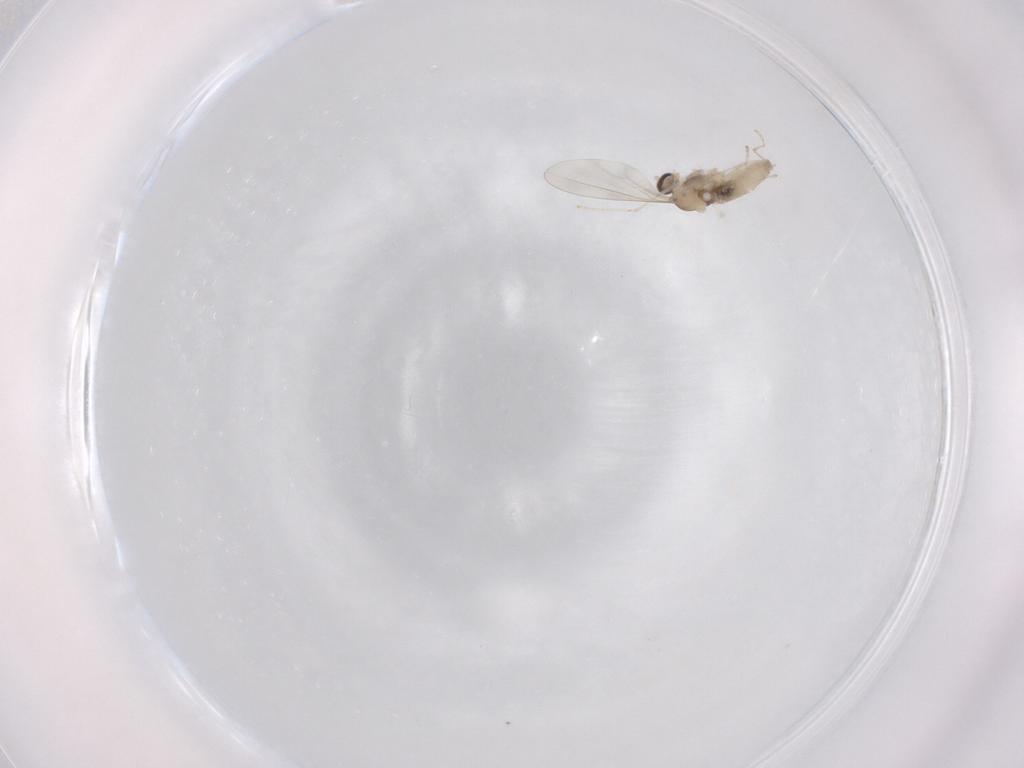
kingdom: Animalia
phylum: Arthropoda
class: Insecta
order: Diptera
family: Cecidomyiidae
